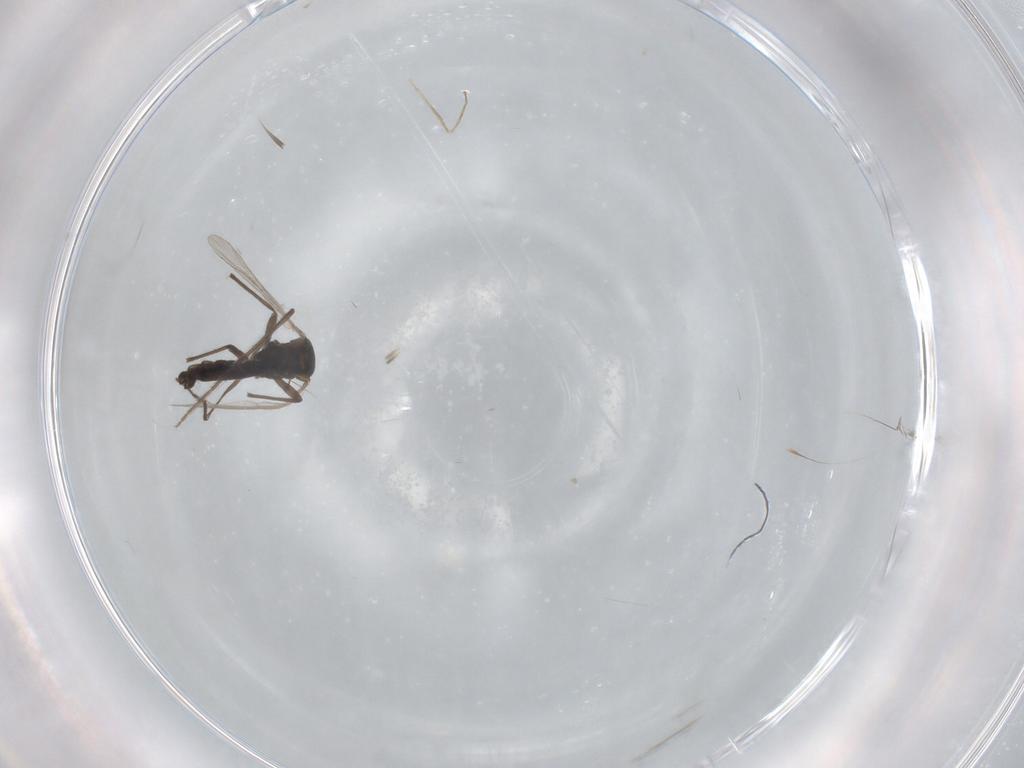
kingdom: Animalia
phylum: Arthropoda
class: Insecta
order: Diptera
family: Chironomidae
